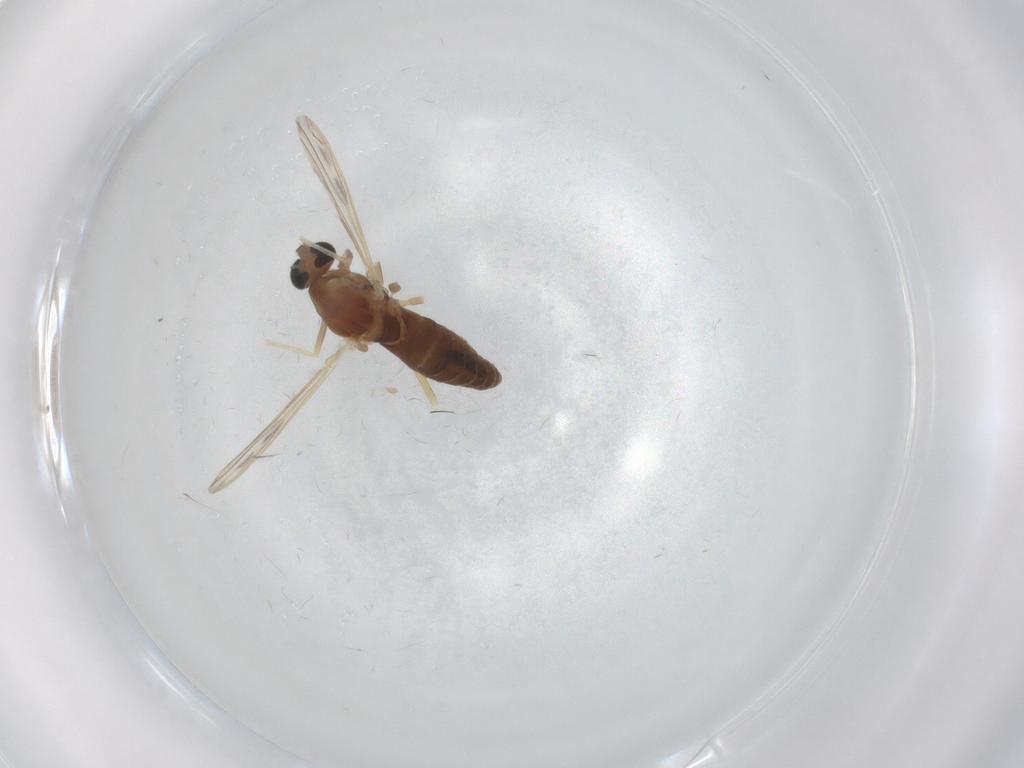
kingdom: Animalia
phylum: Arthropoda
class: Insecta
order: Diptera
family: Chironomidae
